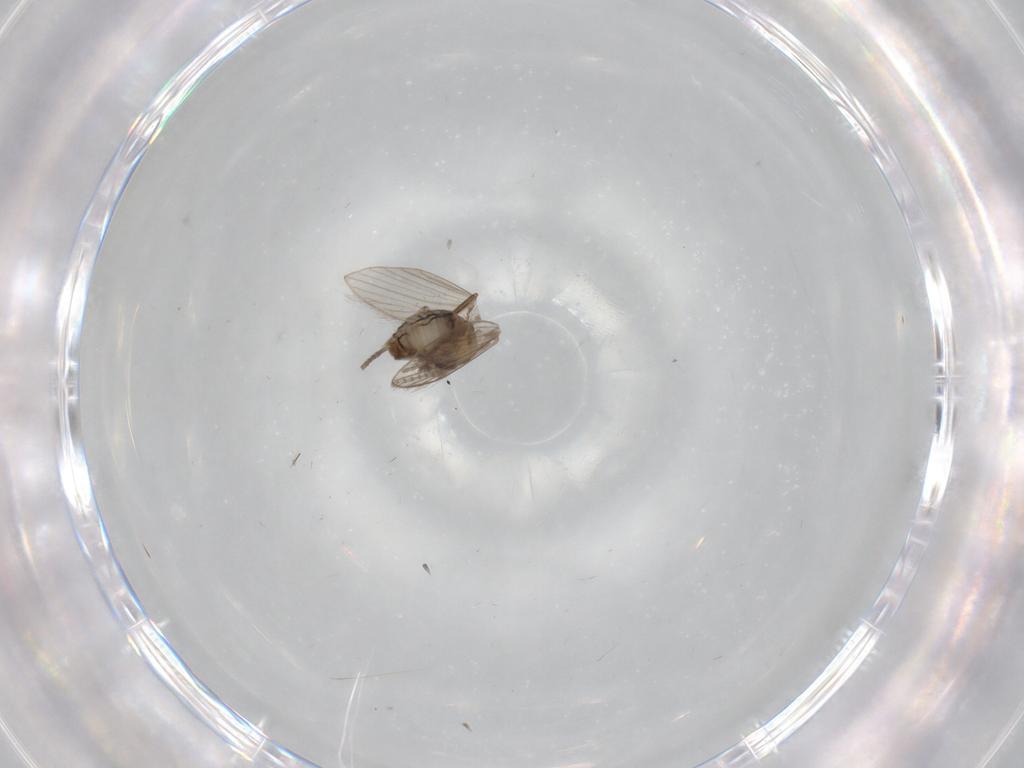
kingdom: Animalia
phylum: Arthropoda
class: Insecta
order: Diptera
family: Psychodidae
